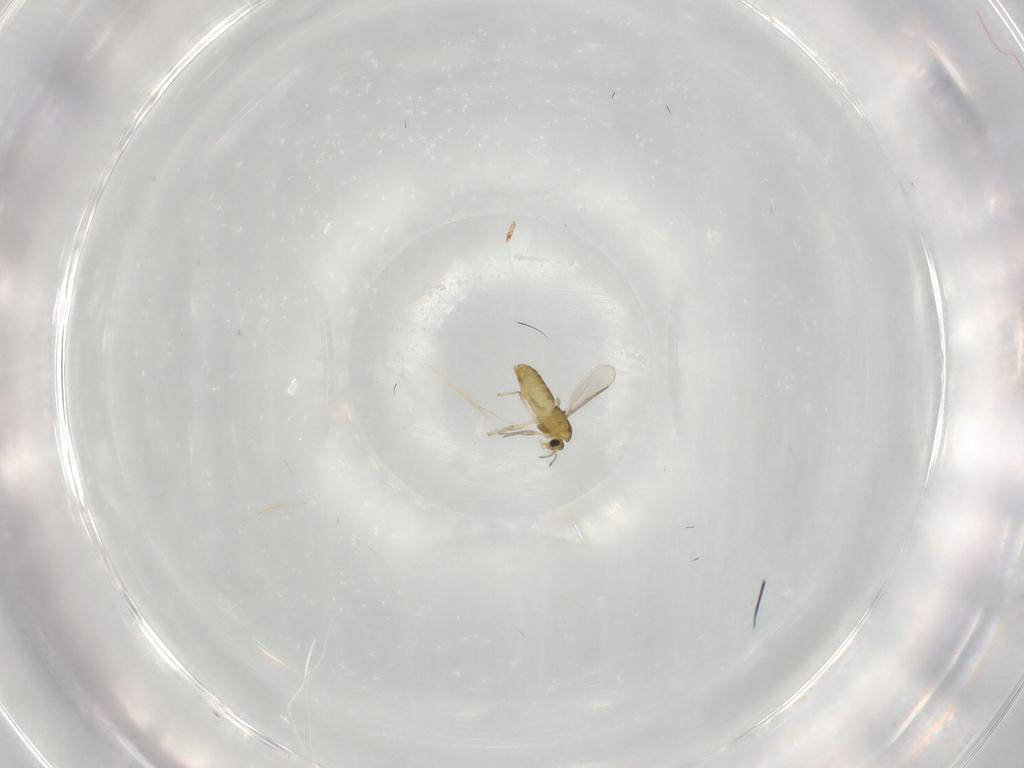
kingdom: Animalia
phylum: Arthropoda
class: Insecta
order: Diptera
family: Chironomidae
